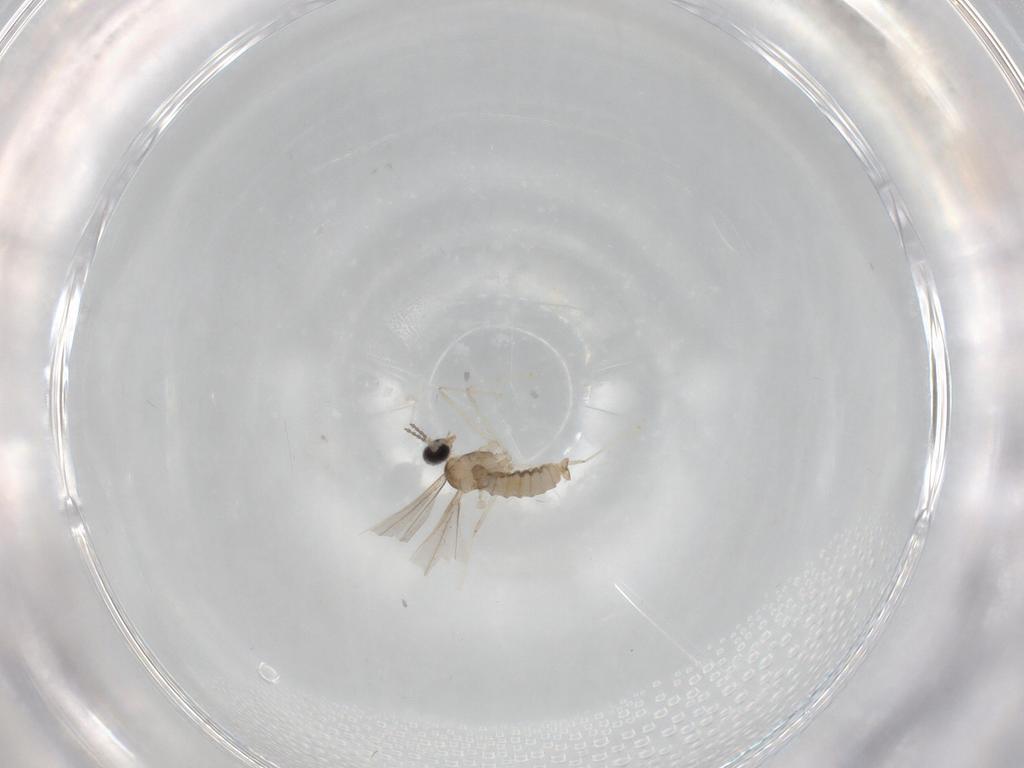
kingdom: Animalia
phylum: Arthropoda
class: Insecta
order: Diptera
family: Cecidomyiidae
